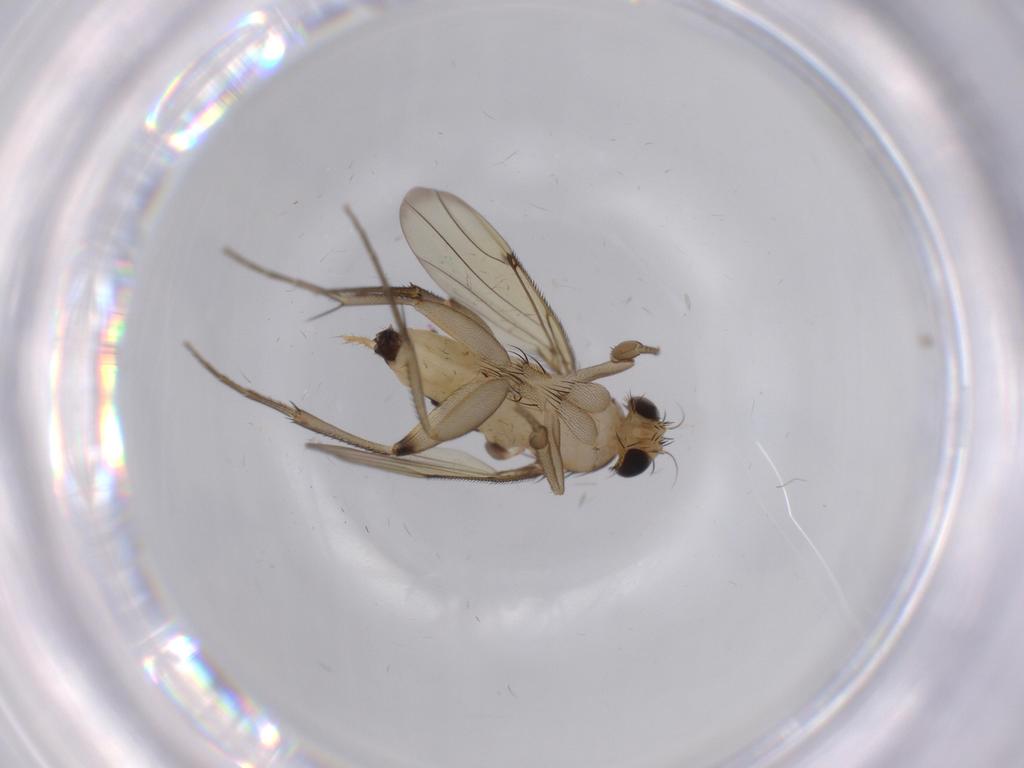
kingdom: Animalia
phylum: Arthropoda
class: Insecta
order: Diptera
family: Phoridae
